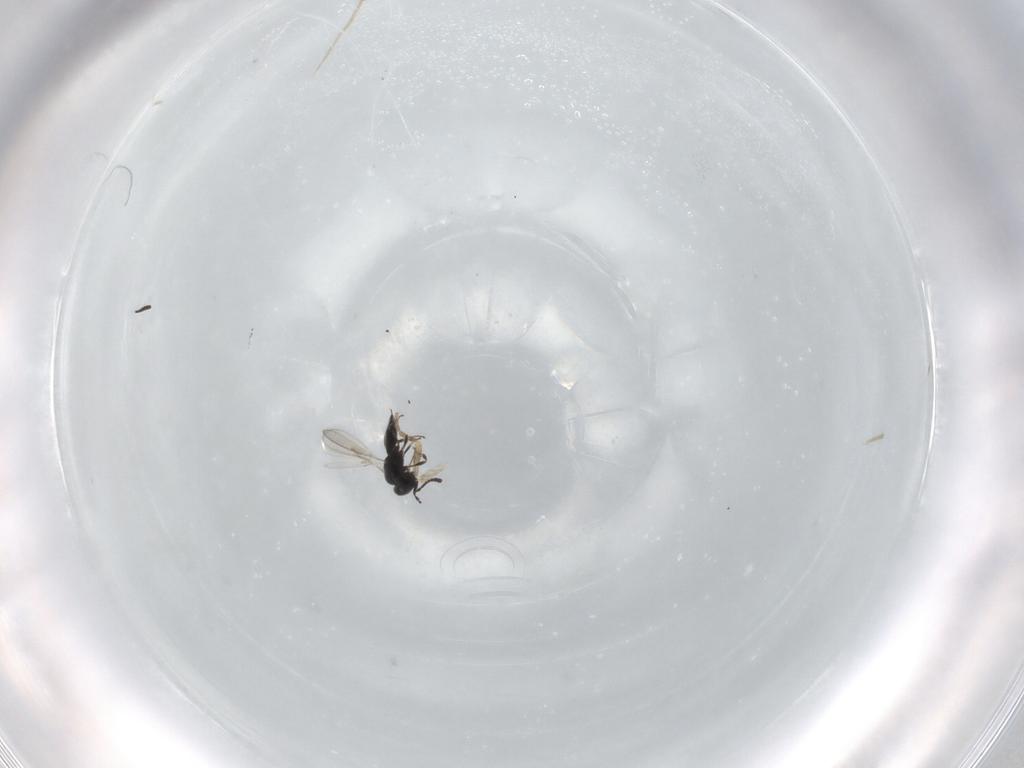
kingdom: Animalia
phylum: Arthropoda
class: Insecta
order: Hymenoptera
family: Scelionidae
